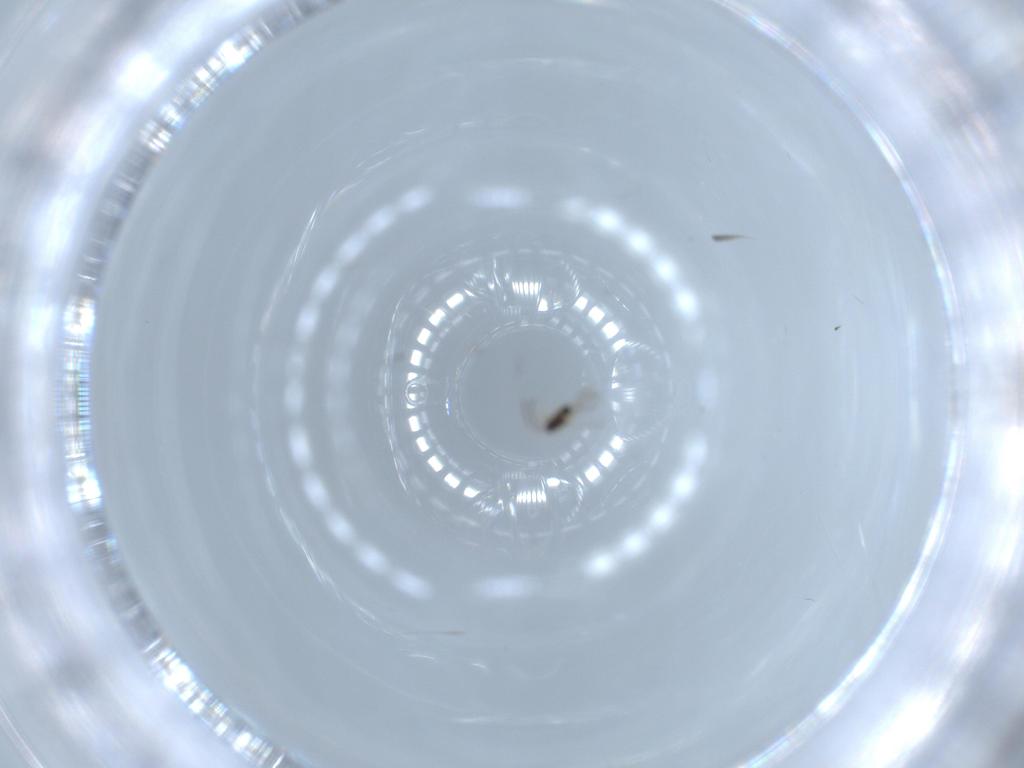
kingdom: Animalia
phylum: Arthropoda
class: Insecta
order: Hymenoptera
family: Mymaridae
